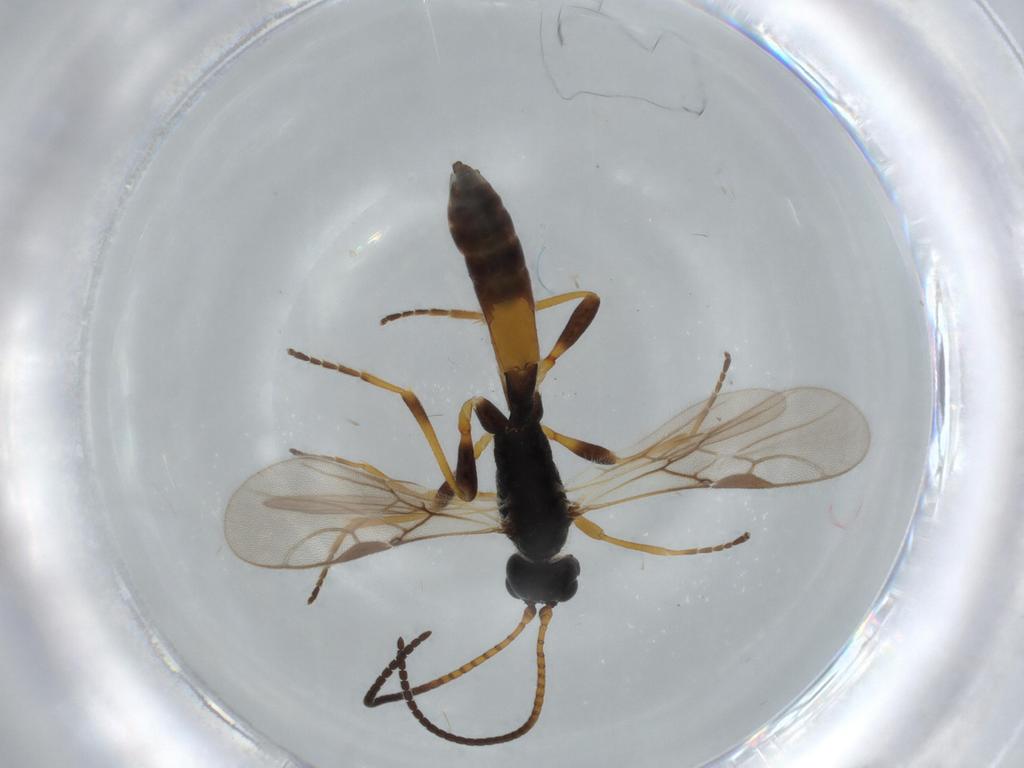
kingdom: Animalia
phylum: Arthropoda
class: Insecta
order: Hymenoptera
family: Braconidae
